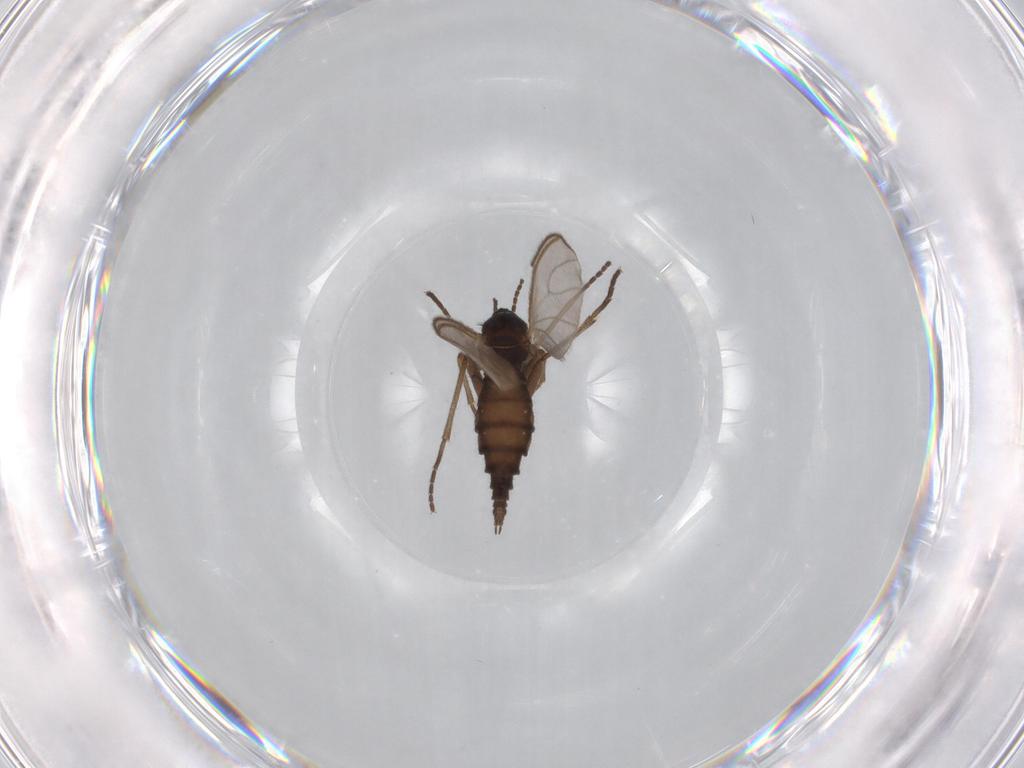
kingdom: Animalia
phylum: Arthropoda
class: Insecta
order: Diptera
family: Sciaridae
